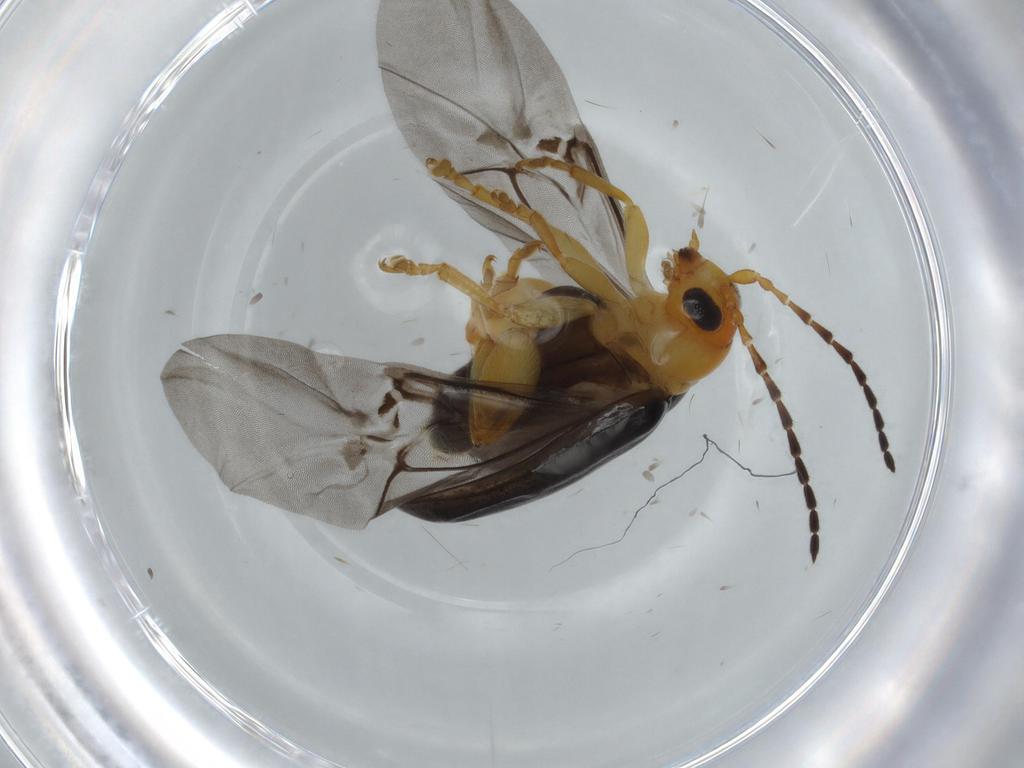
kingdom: Animalia
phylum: Arthropoda
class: Insecta
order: Coleoptera
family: Chrysomelidae
